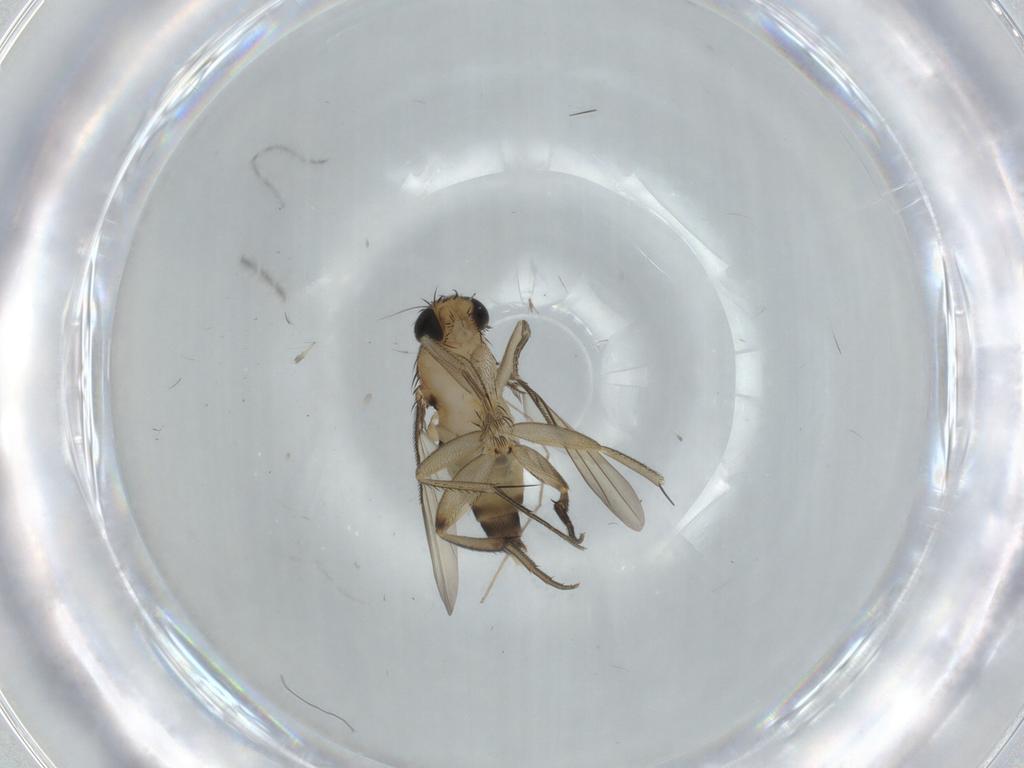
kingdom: Animalia
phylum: Arthropoda
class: Insecta
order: Diptera
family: Phoridae
